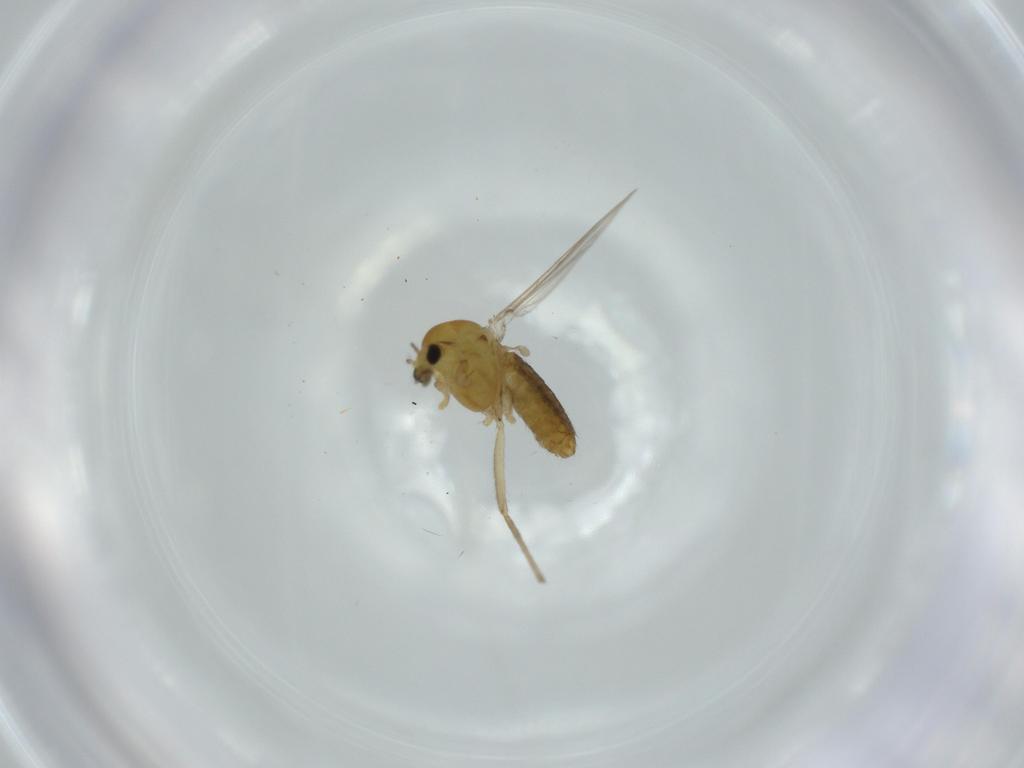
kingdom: Animalia
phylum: Arthropoda
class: Insecta
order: Diptera
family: Chironomidae
